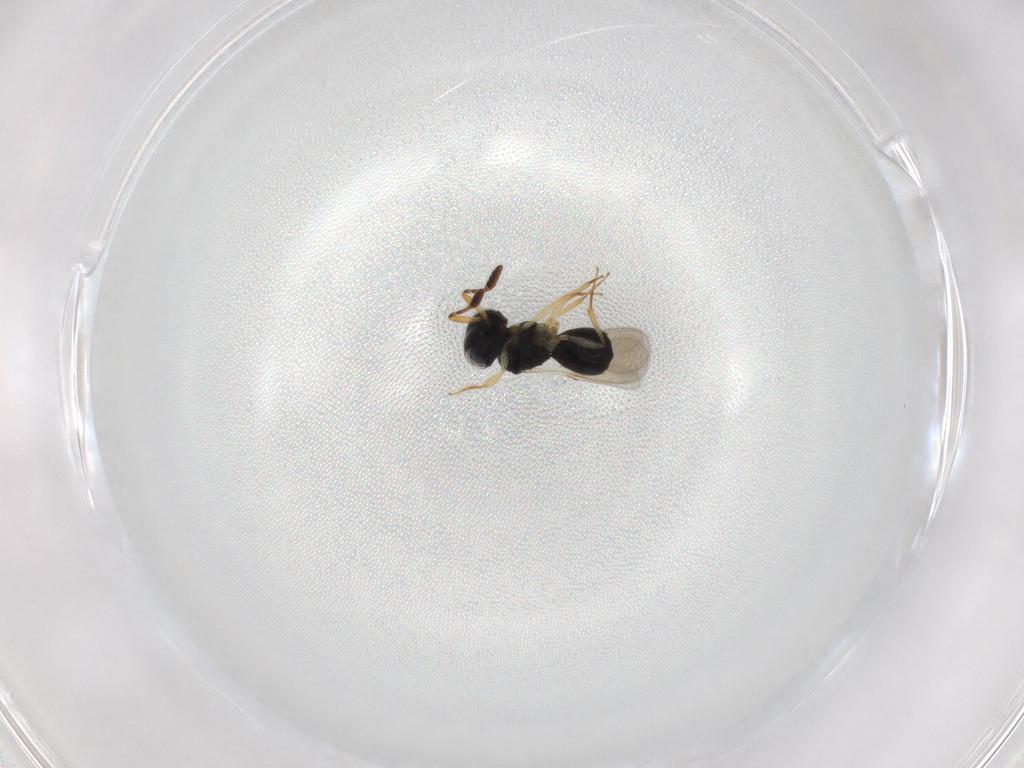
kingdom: Animalia
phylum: Arthropoda
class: Insecta
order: Hymenoptera
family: Scelionidae
